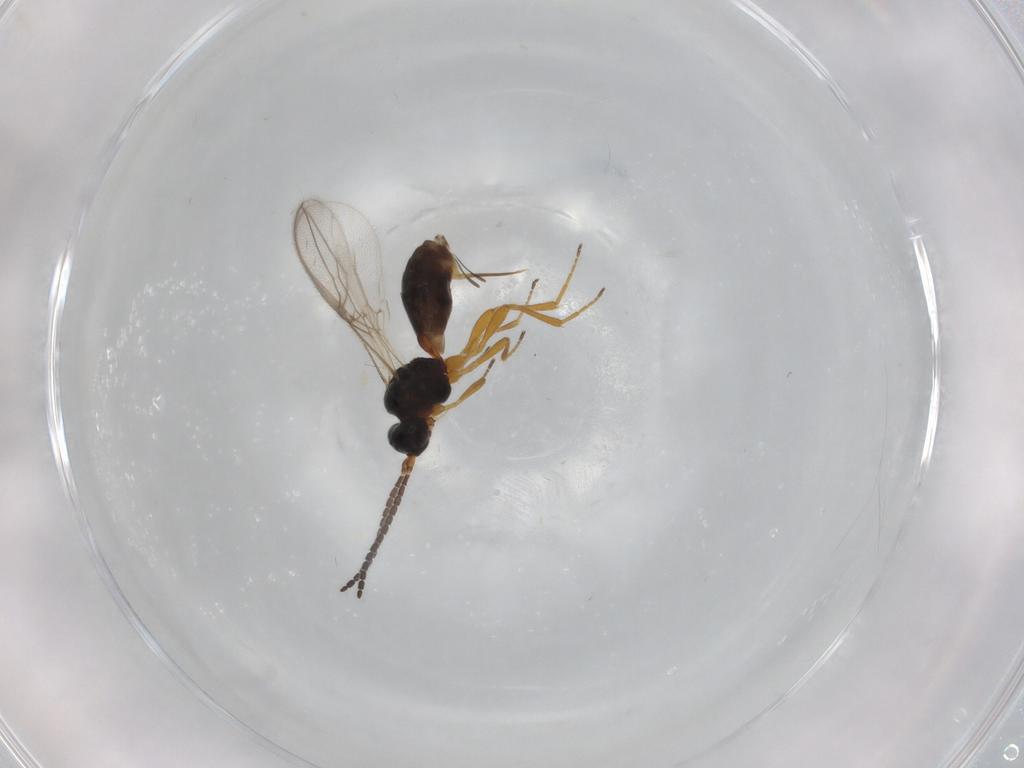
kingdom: Animalia
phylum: Arthropoda
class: Insecta
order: Hymenoptera
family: Braconidae
